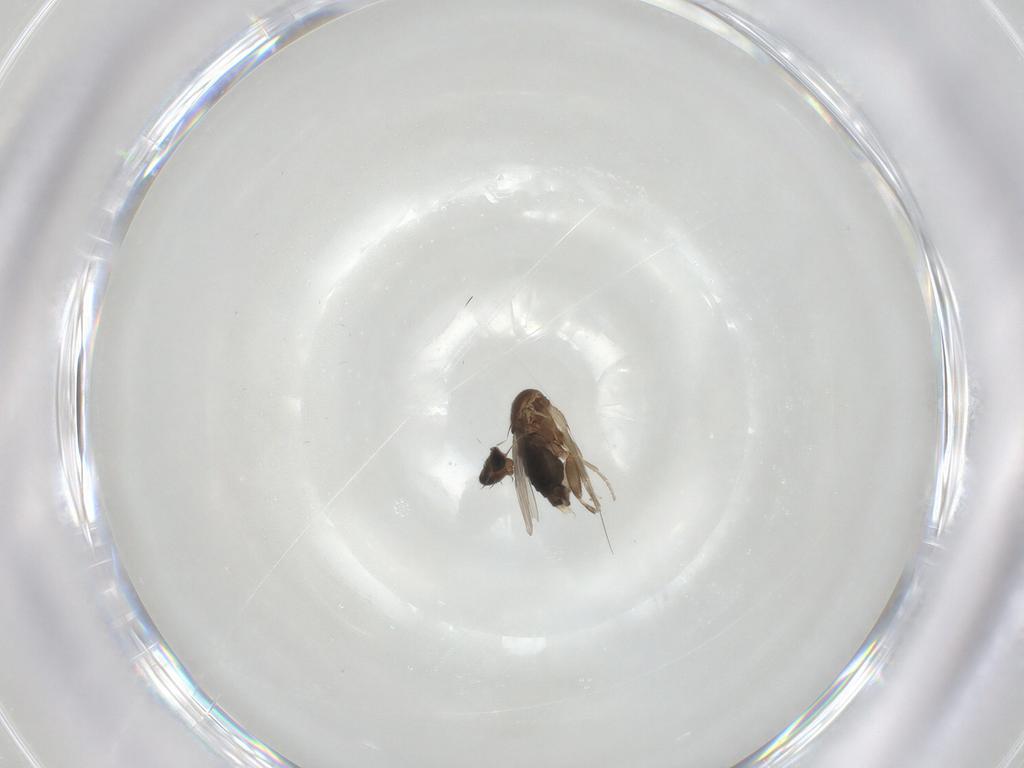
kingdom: Animalia
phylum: Arthropoda
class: Insecta
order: Diptera
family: Phoridae
